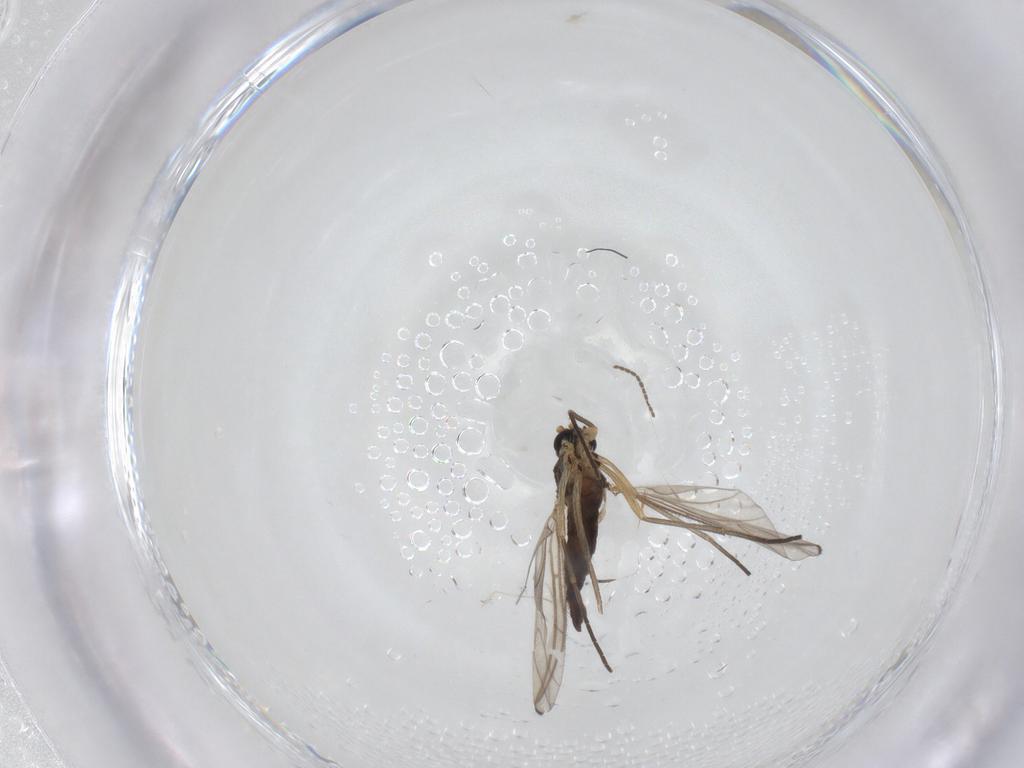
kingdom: Animalia
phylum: Arthropoda
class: Insecta
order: Diptera
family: Sciaridae
